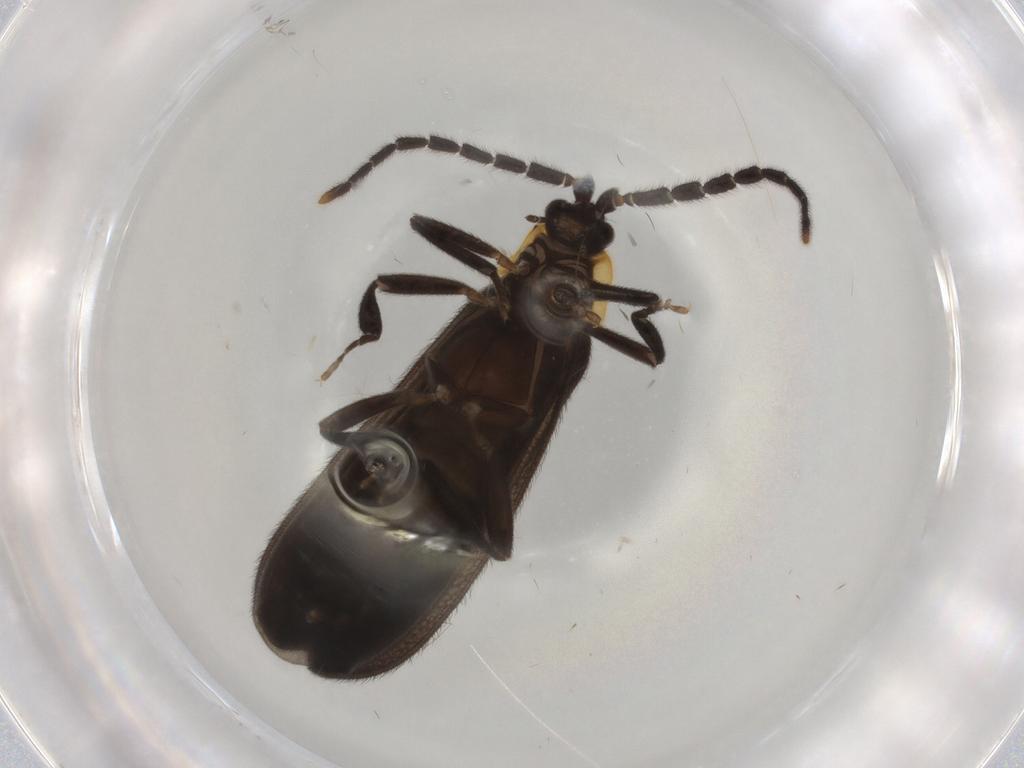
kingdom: Animalia
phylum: Arthropoda
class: Insecta
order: Coleoptera
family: Lycidae
